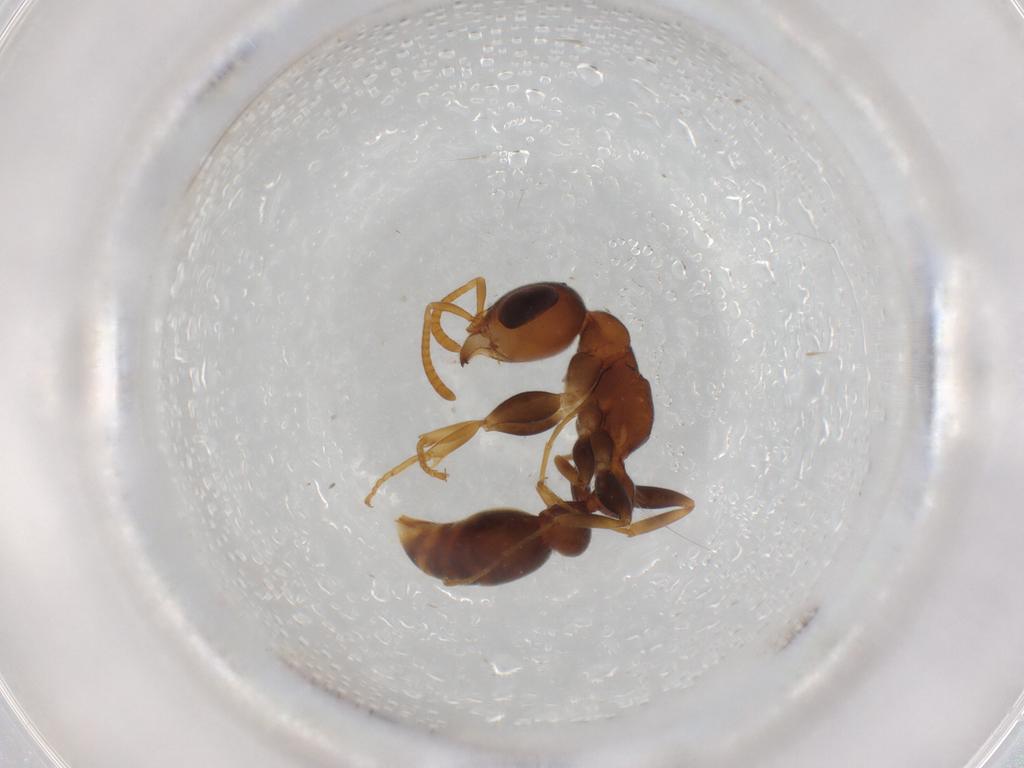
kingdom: Animalia
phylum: Arthropoda
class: Insecta
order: Hymenoptera
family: Formicidae
